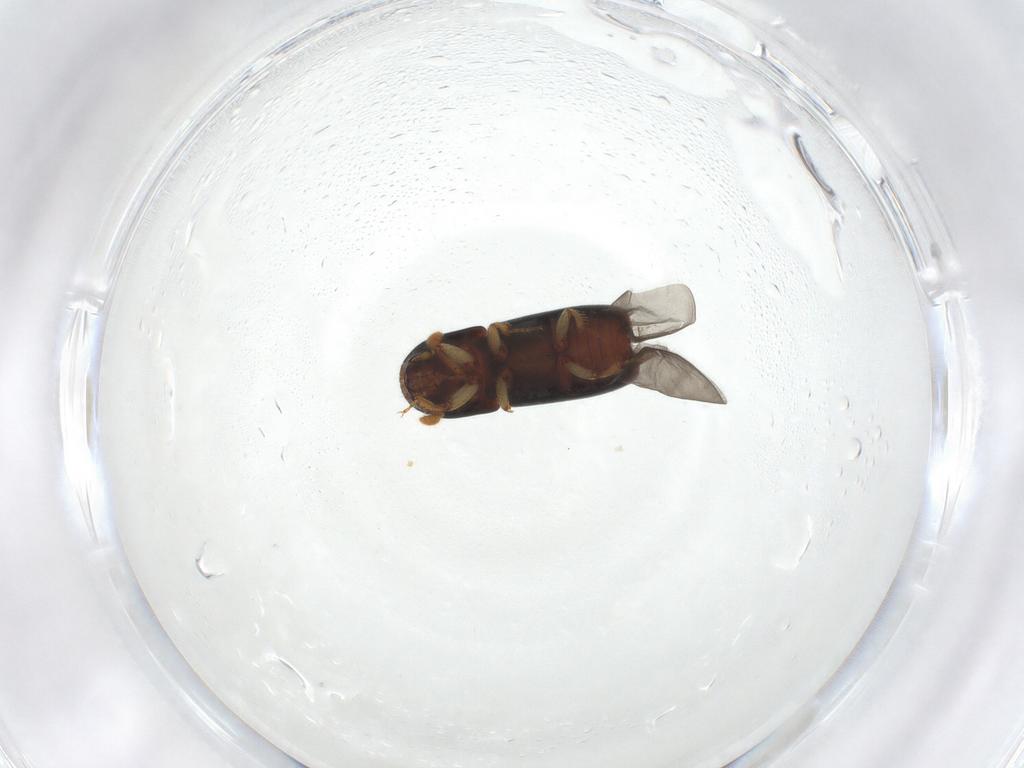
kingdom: Animalia
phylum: Arthropoda
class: Insecta
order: Coleoptera
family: Curculionidae
